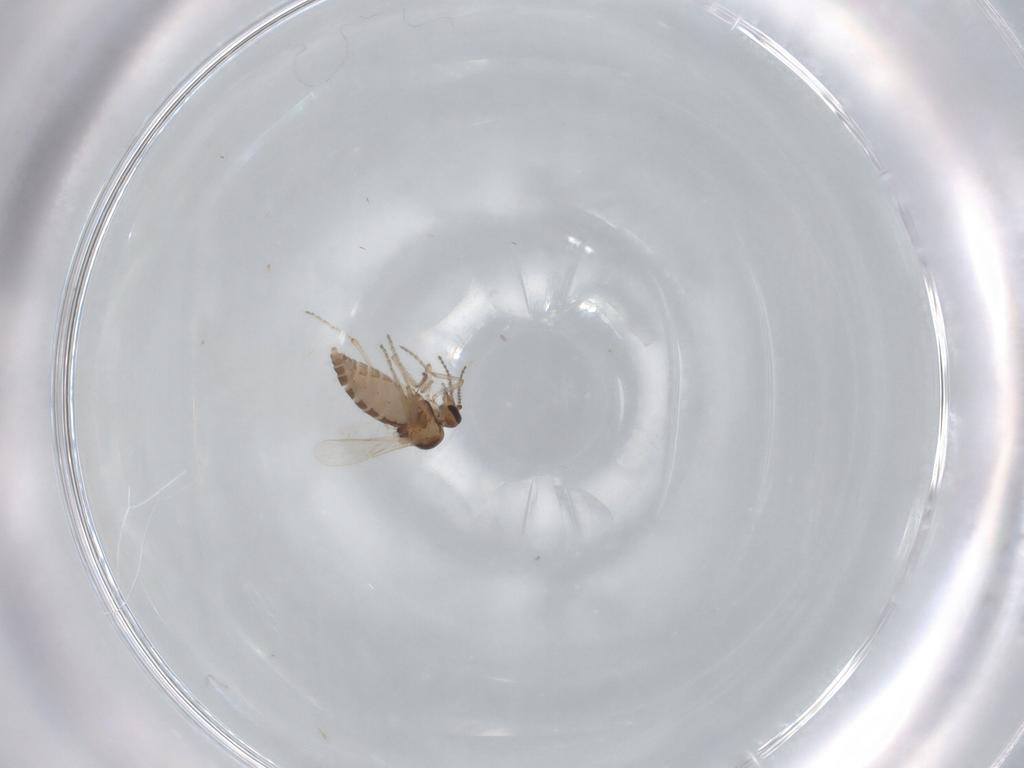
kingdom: Animalia
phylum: Arthropoda
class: Insecta
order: Diptera
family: Ceratopogonidae
